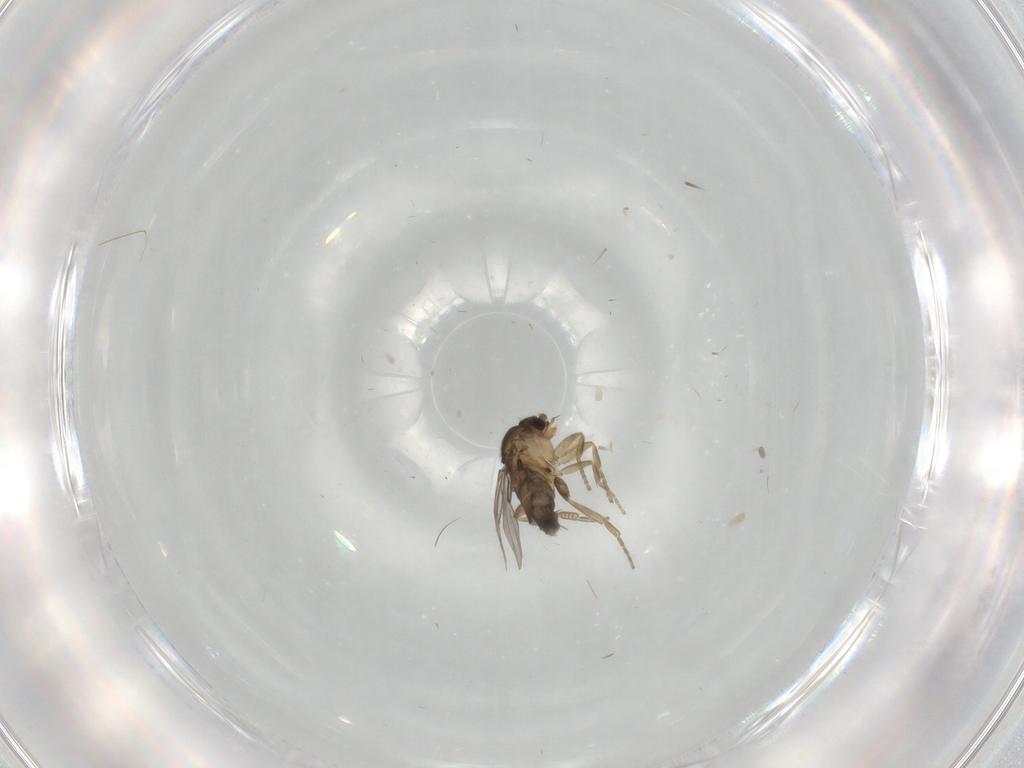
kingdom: Animalia
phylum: Arthropoda
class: Insecta
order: Diptera
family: Phoridae
